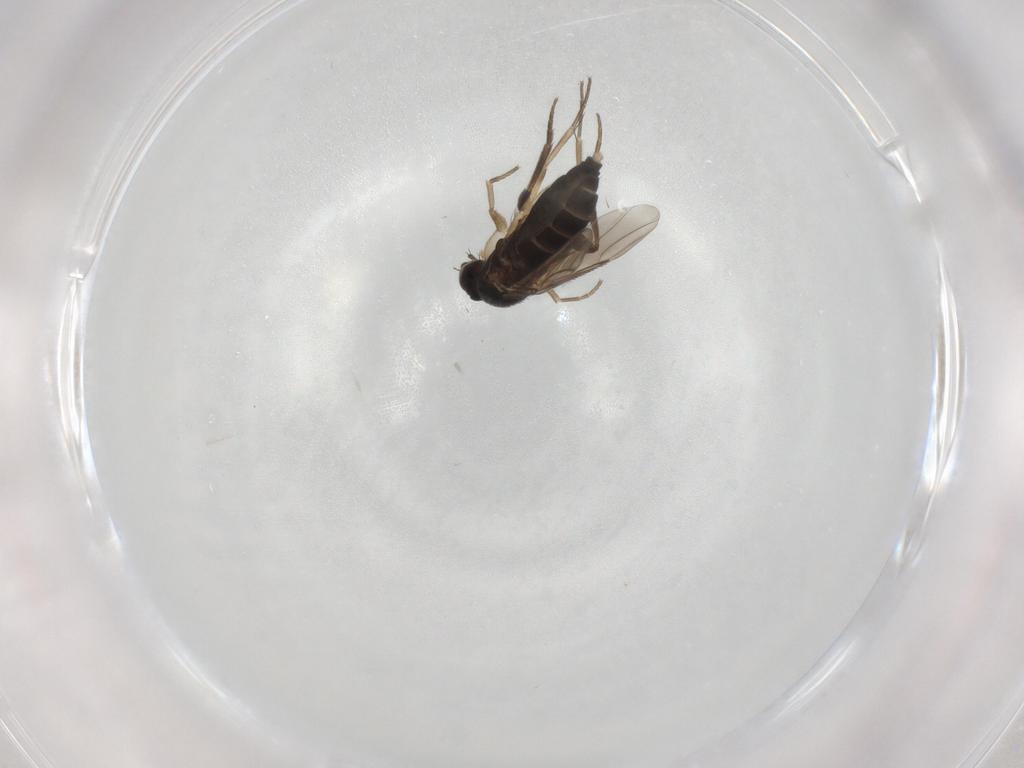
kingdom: Animalia
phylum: Arthropoda
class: Insecta
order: Diptera
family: Phoridae
